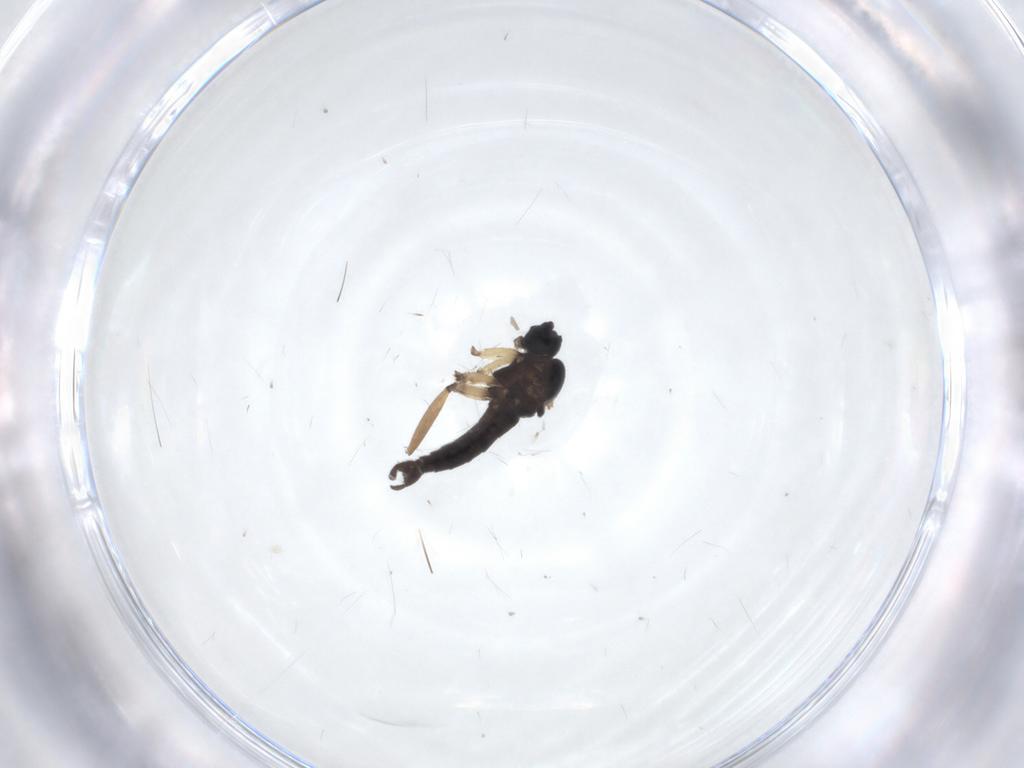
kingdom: Animalia
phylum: Arthropoda
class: Insecta
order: Diptera
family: Sciaridae
